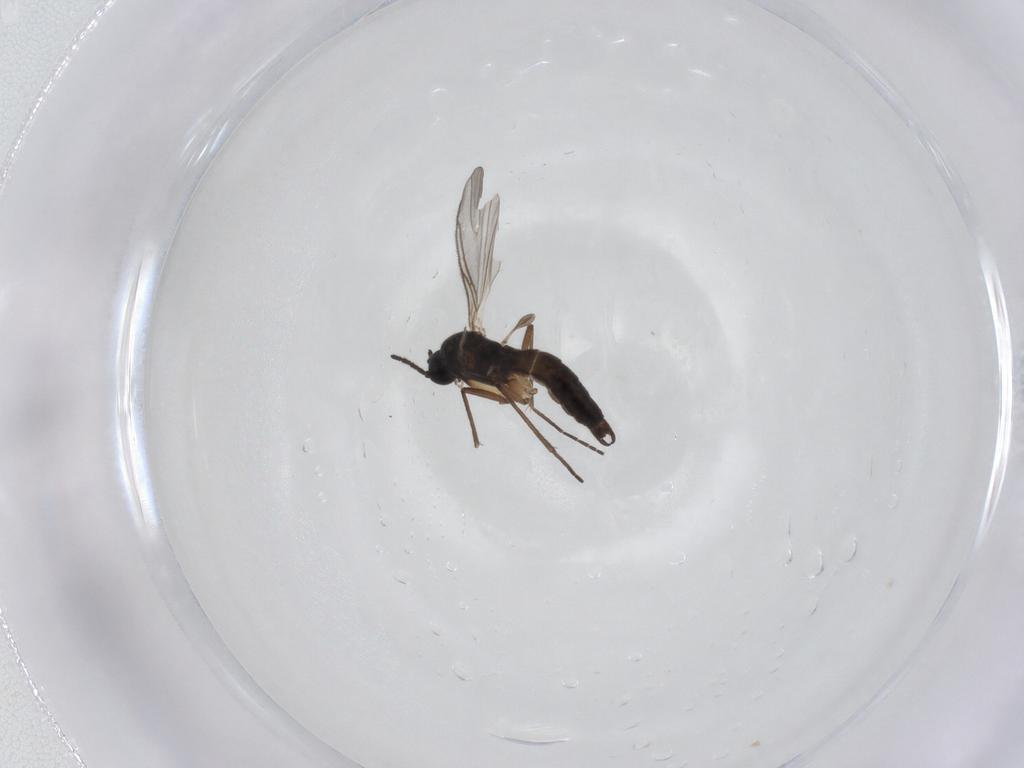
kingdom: Animalia
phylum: Arthropoda
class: Insecta
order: Diptera
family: Sciaridae
